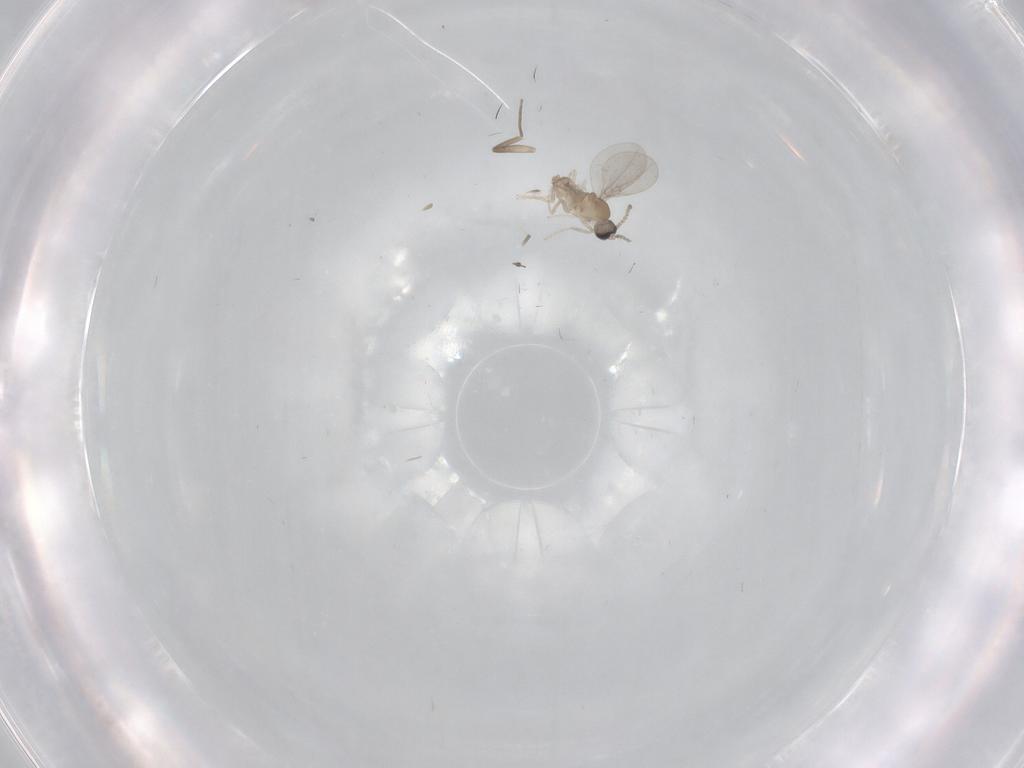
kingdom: Animalia
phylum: Arthropoda
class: Insecta
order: Diptera
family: Cecidomyiidae
